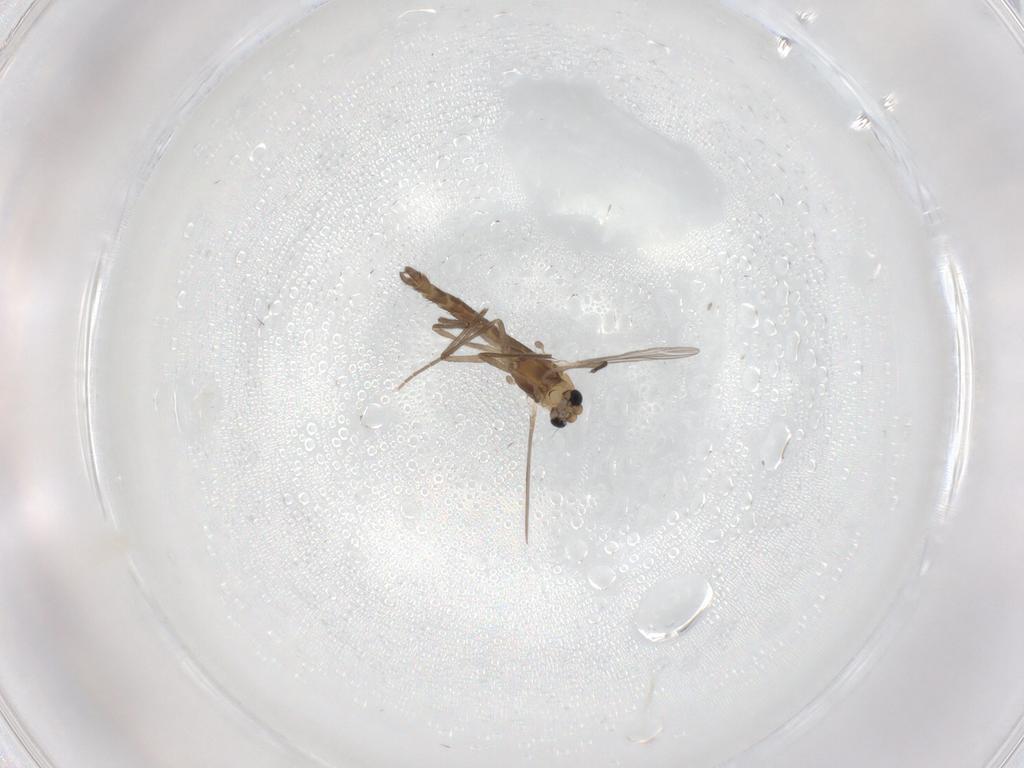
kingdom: Animalia
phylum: Arthropoda
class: Insecta
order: Diptera
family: Chironomidae
